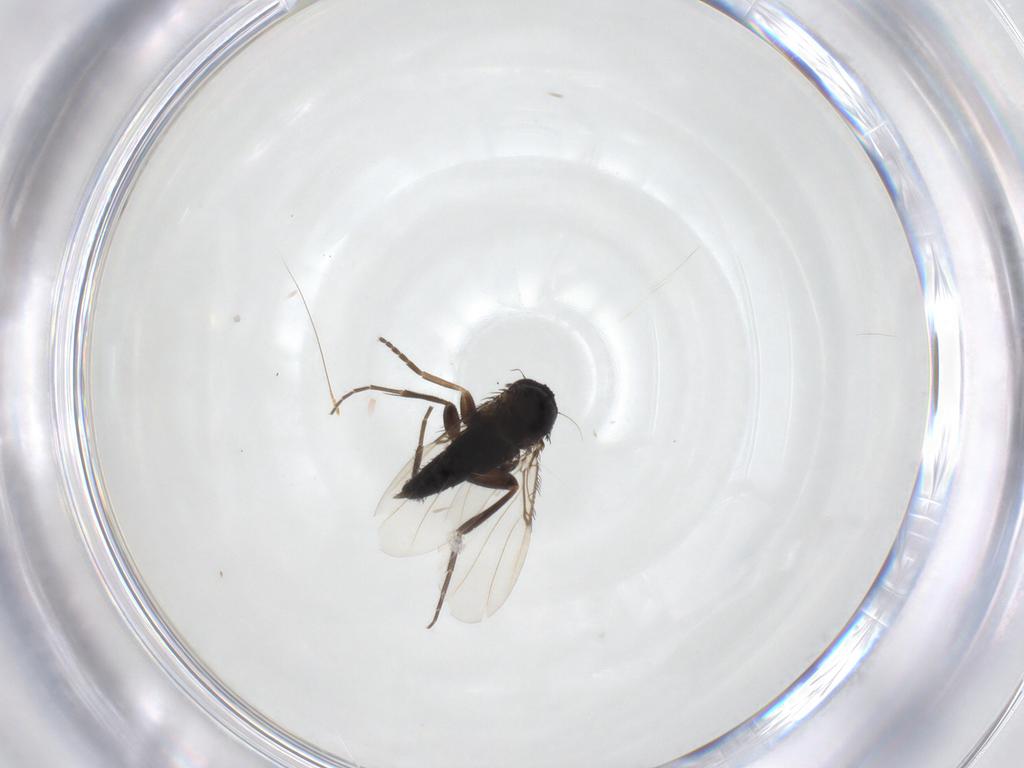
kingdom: Animalia
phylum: Arthropoda
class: Insecta
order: Diptera
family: Phoridae
